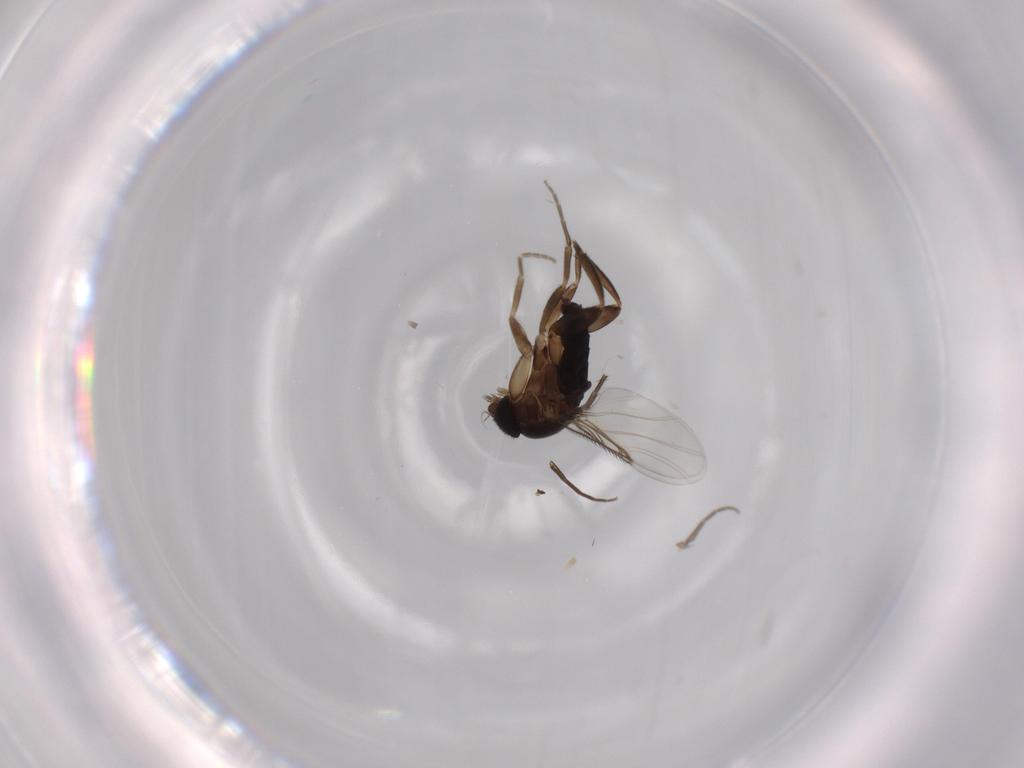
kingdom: Animalia
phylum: Arthropoda
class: Insecta
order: Diptera
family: Phoridae
